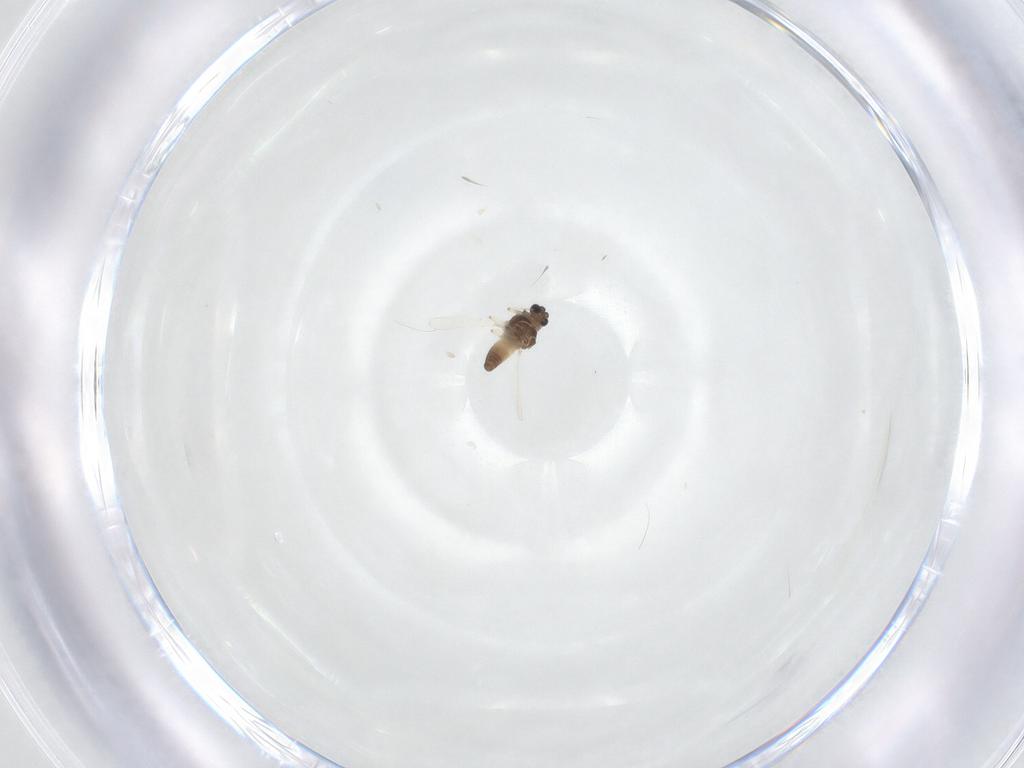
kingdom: Animalia
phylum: Arthropoda
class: Insecta
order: Diptera
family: Chironomidae
